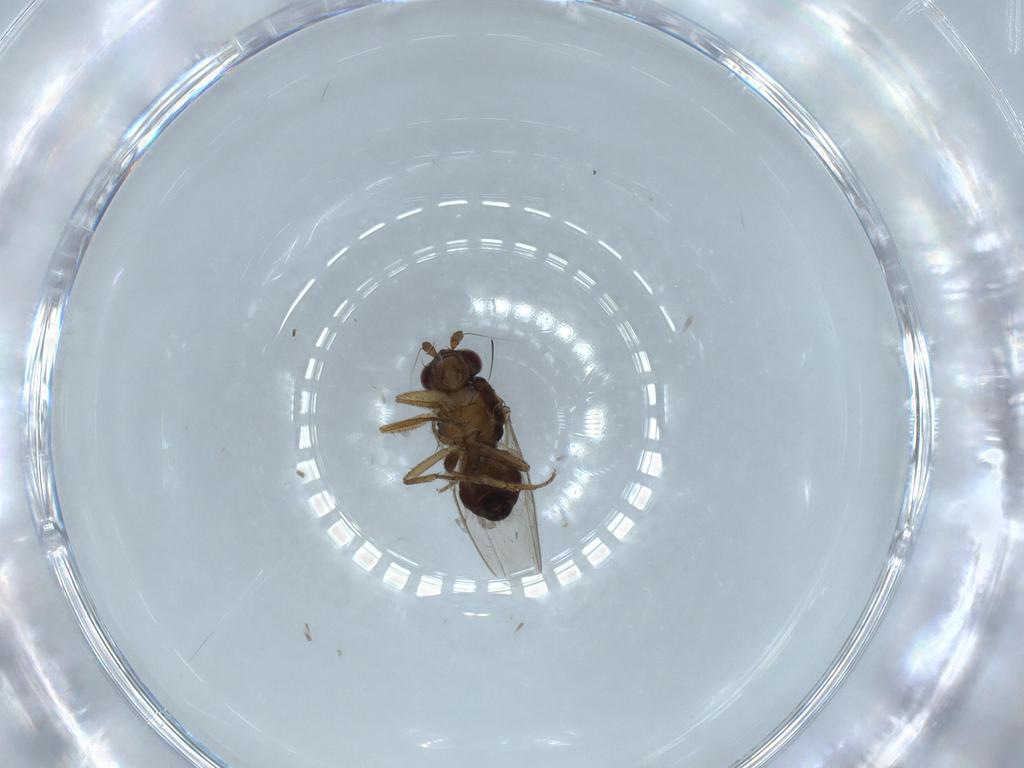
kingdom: Animalia
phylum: Arthropoda
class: Insecta
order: Diptera
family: Sphaeroceridae
